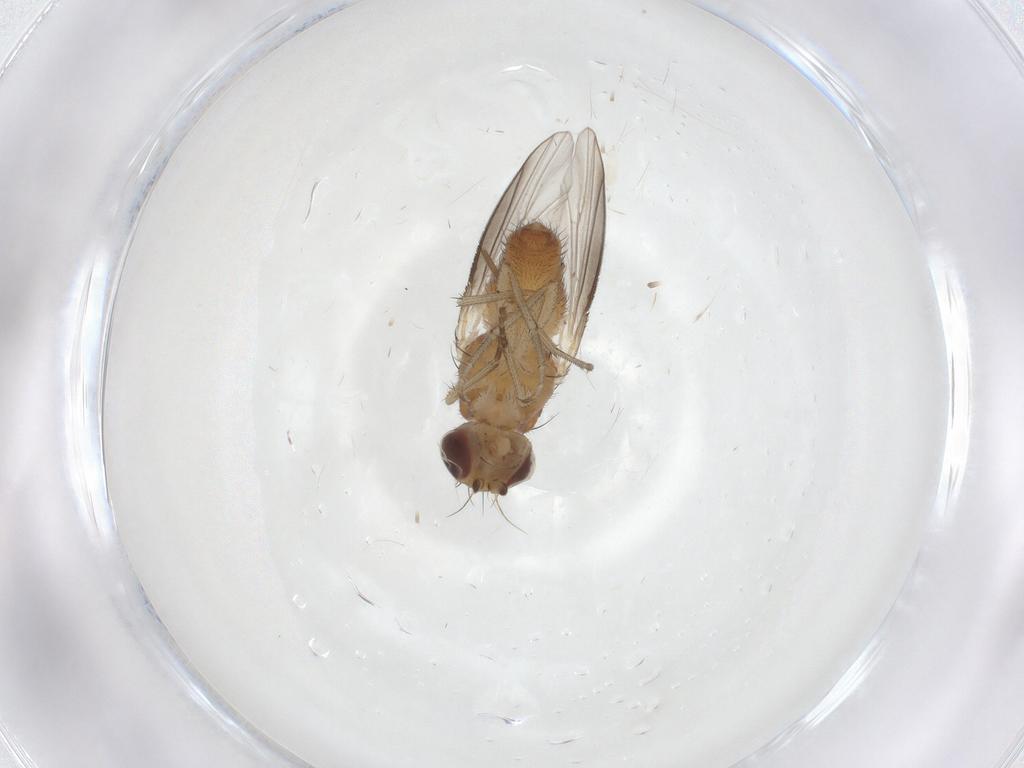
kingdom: Animalia
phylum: Arthropoda
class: Insecta
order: Diptera
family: Heleomyzidae
